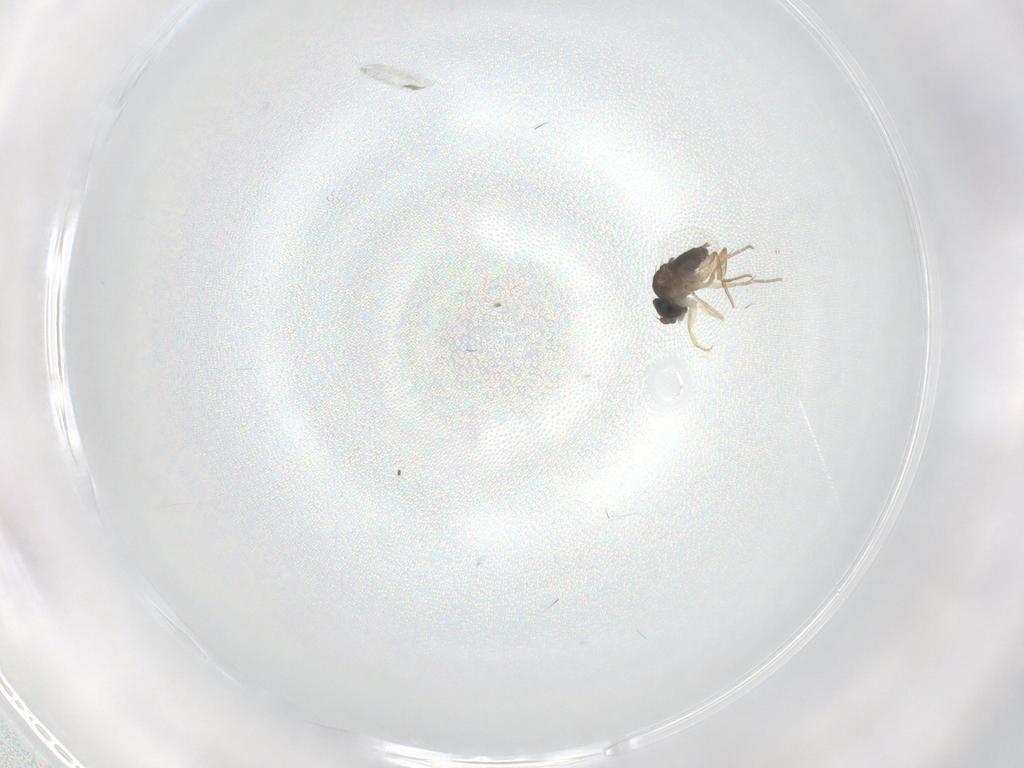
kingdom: Animalia
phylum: Arthropoda
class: Insecta
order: Diptera
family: Phoridae
